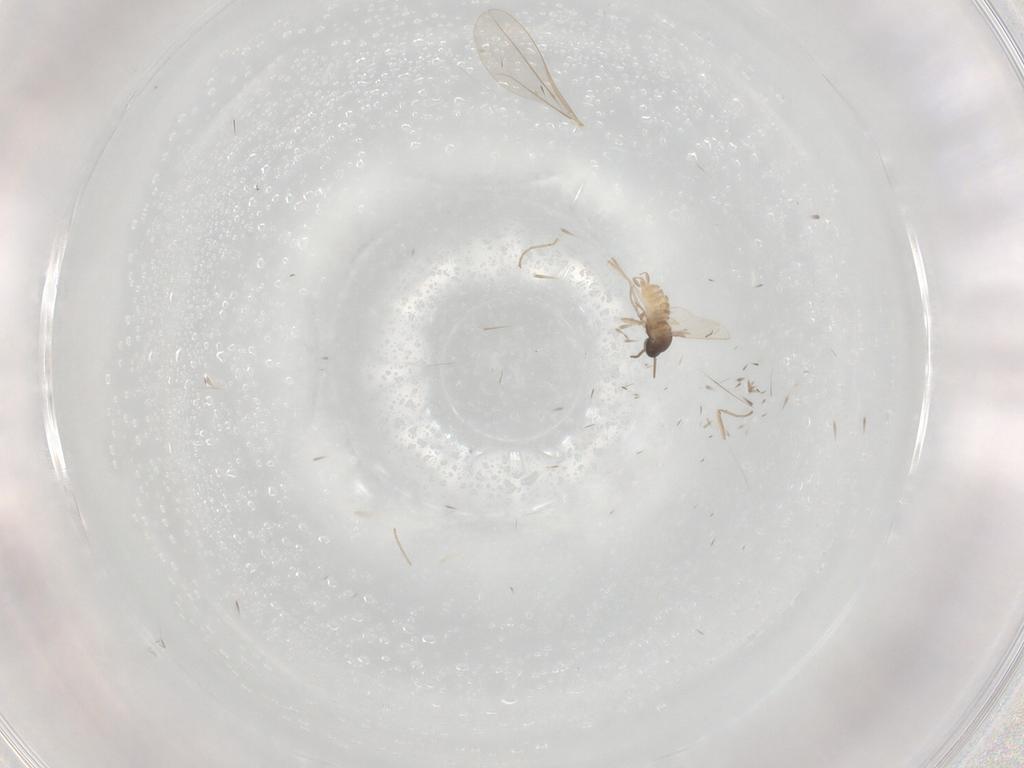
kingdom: Animalia
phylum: Arthropoda
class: Insecta
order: Diptera
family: Cecidomyiidae
